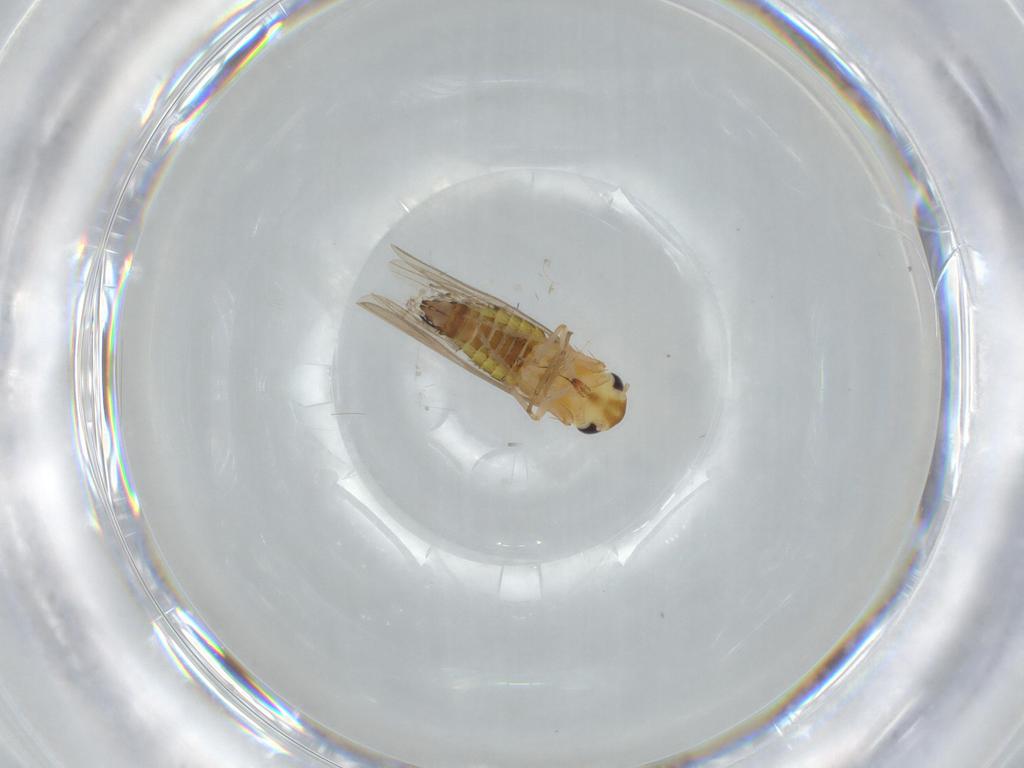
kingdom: Animalia
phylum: Arthropoda
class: Insecta
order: Hemiptera
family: Cicadellidae
